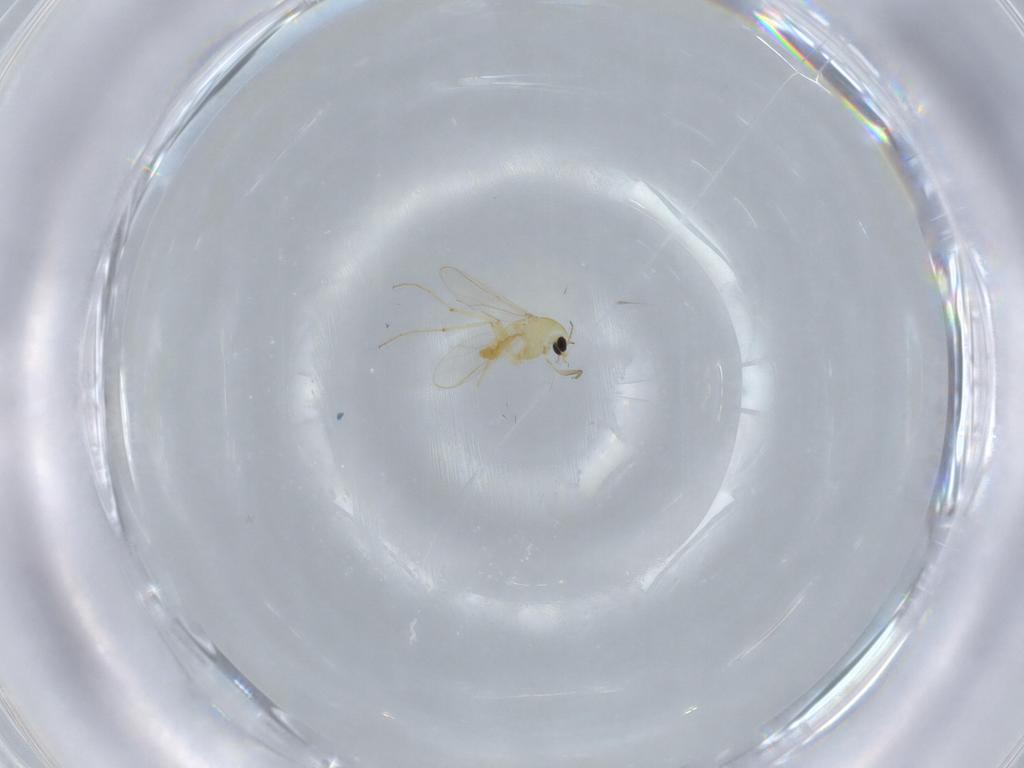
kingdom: Animalia
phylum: Arthropoda
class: Insecta
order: Diptera
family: Chironomidae
